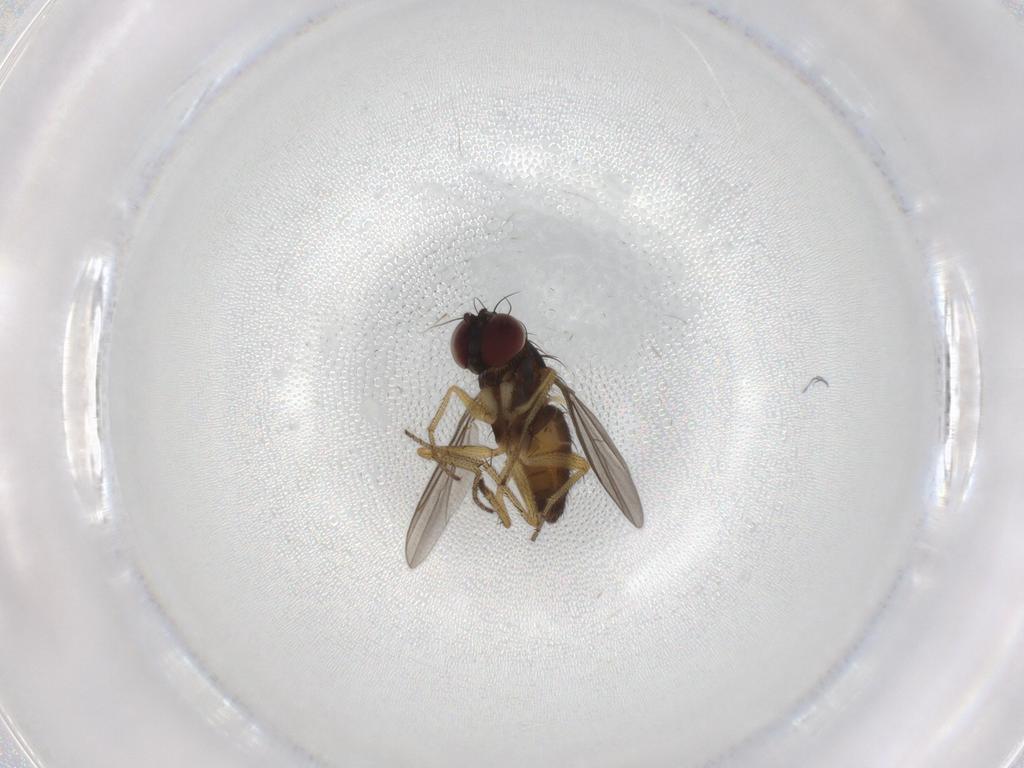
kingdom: Animalia
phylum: Arthropoda
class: Insecta
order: Diptera
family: Dolichopodidae
